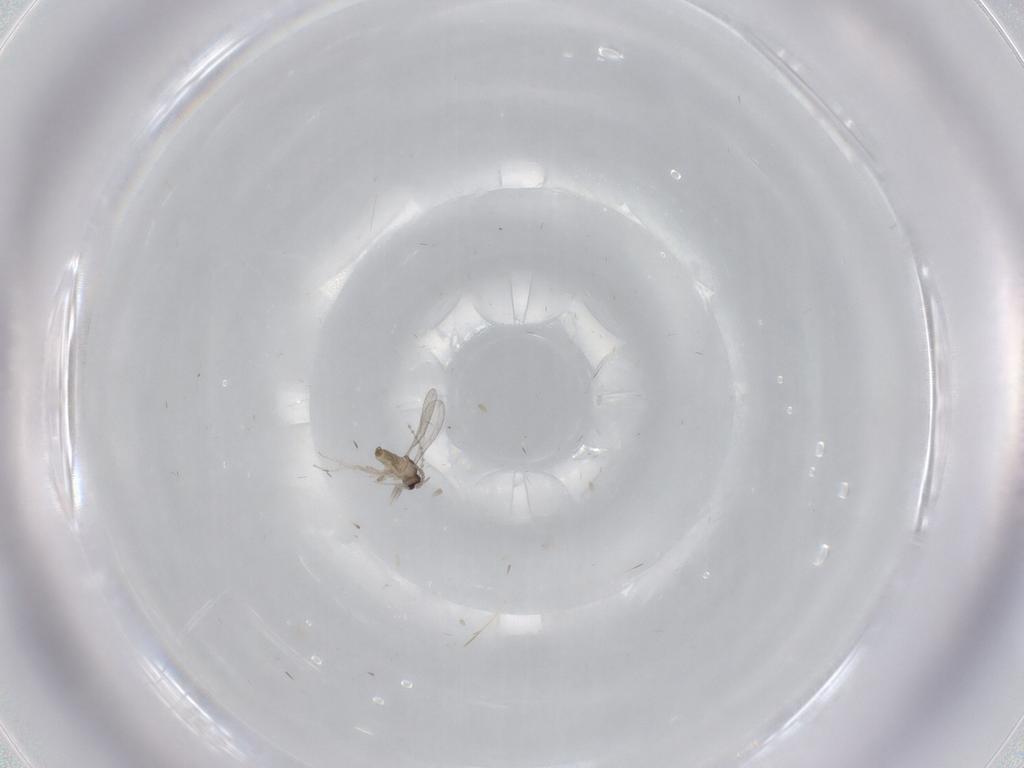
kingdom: Animalia
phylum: Arthropoda
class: Insecta
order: Diptera
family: Cecidomyiidae
